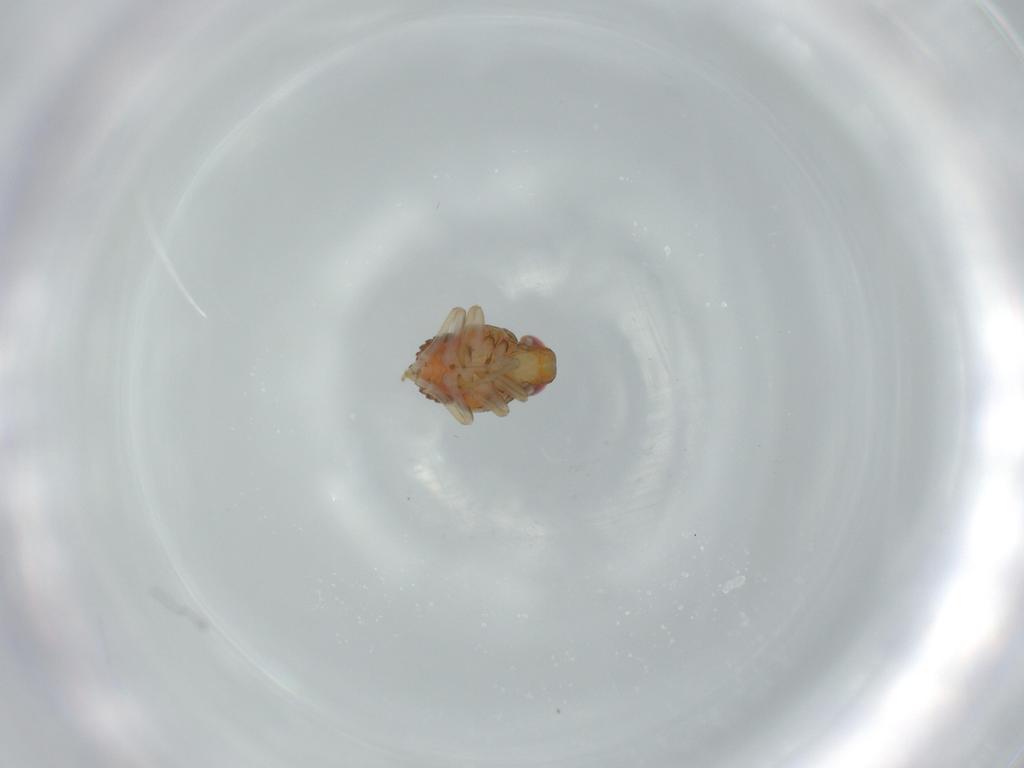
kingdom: Animalia
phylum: Arthropoda
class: Insecta
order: Hemiptera
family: Issidae
